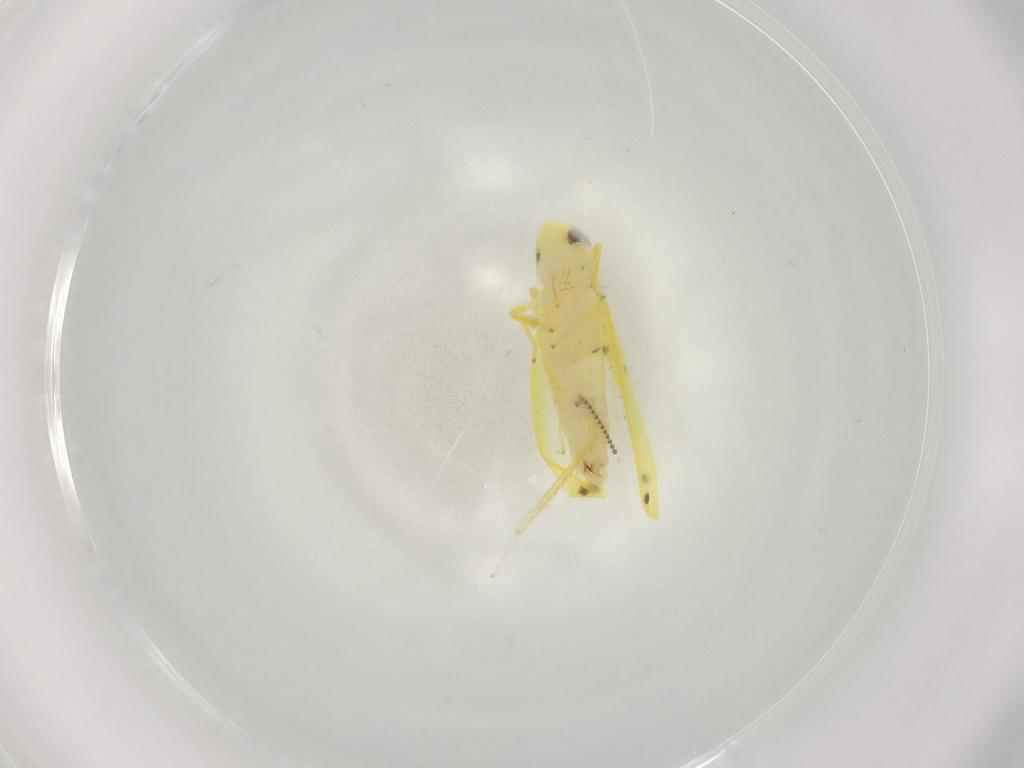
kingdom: Animalia
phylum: Arthropoda
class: Insecta
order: Hemiptera
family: Cicadellidae
